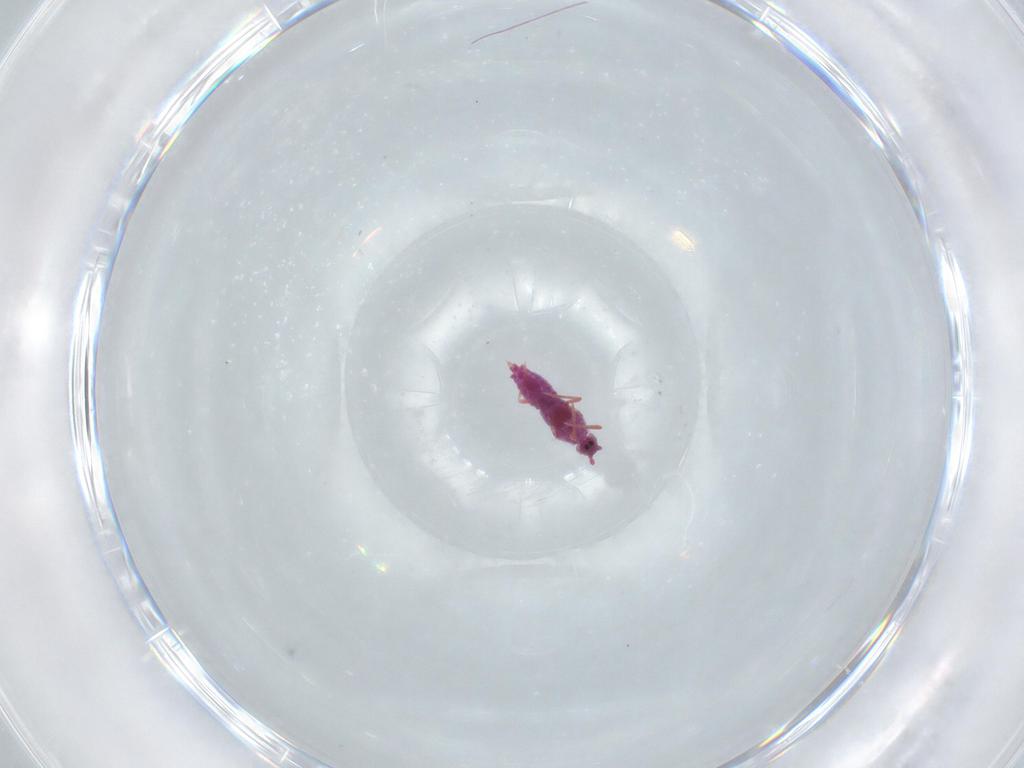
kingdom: Animalia
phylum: Arthropoda
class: Insecta
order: Hemiptera
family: Coccoidea_incertae_sedis
